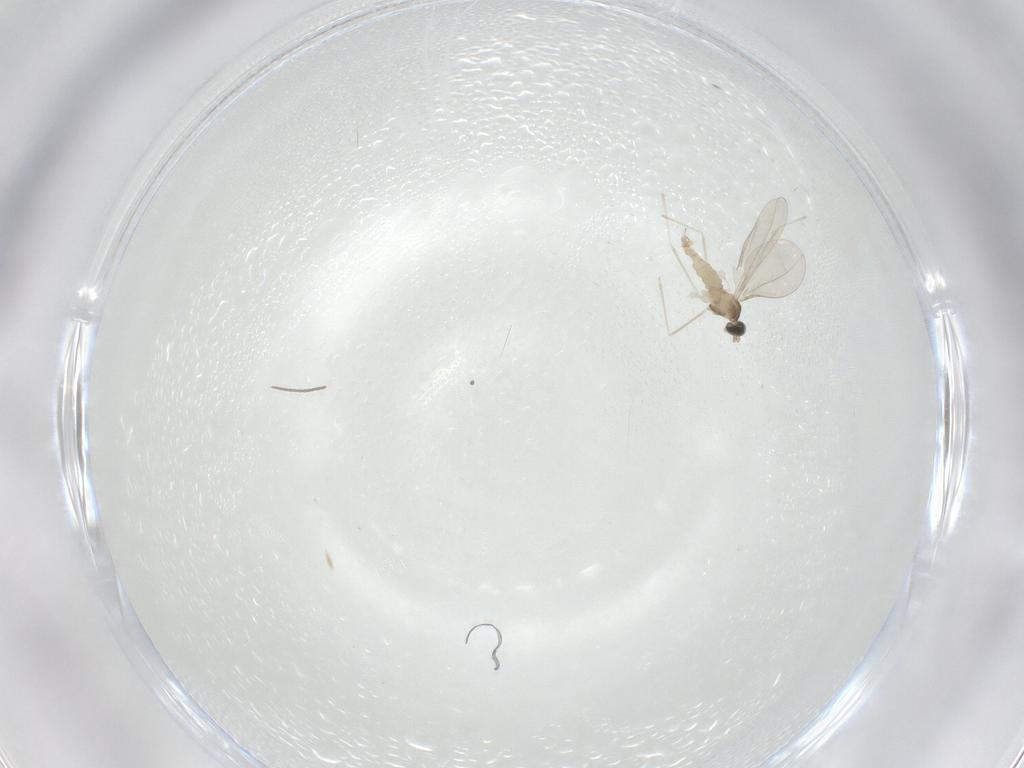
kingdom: Animalia
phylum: Arthropoda
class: Insecta
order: Diptera
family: Cecidomyiidae
